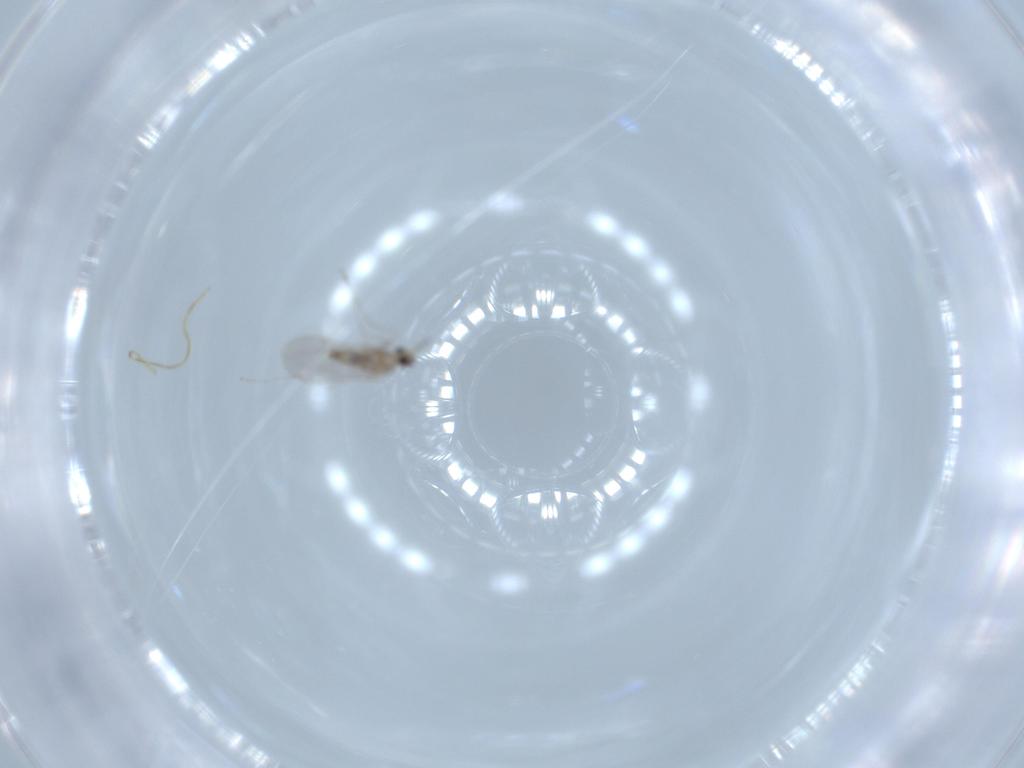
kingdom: Animalia
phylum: Arthropoda
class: Insecta
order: Diptera
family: Cecidomyiidae
